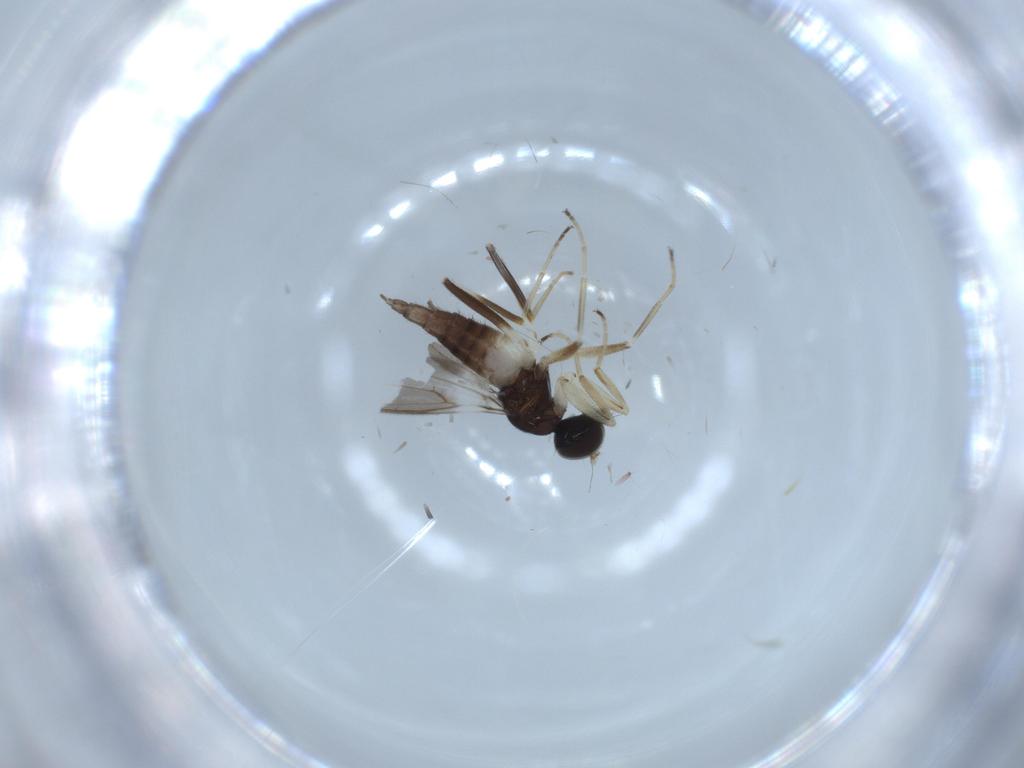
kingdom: Animalia
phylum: Arthropoda
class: Insecta
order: Diptera
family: Hybotidae
